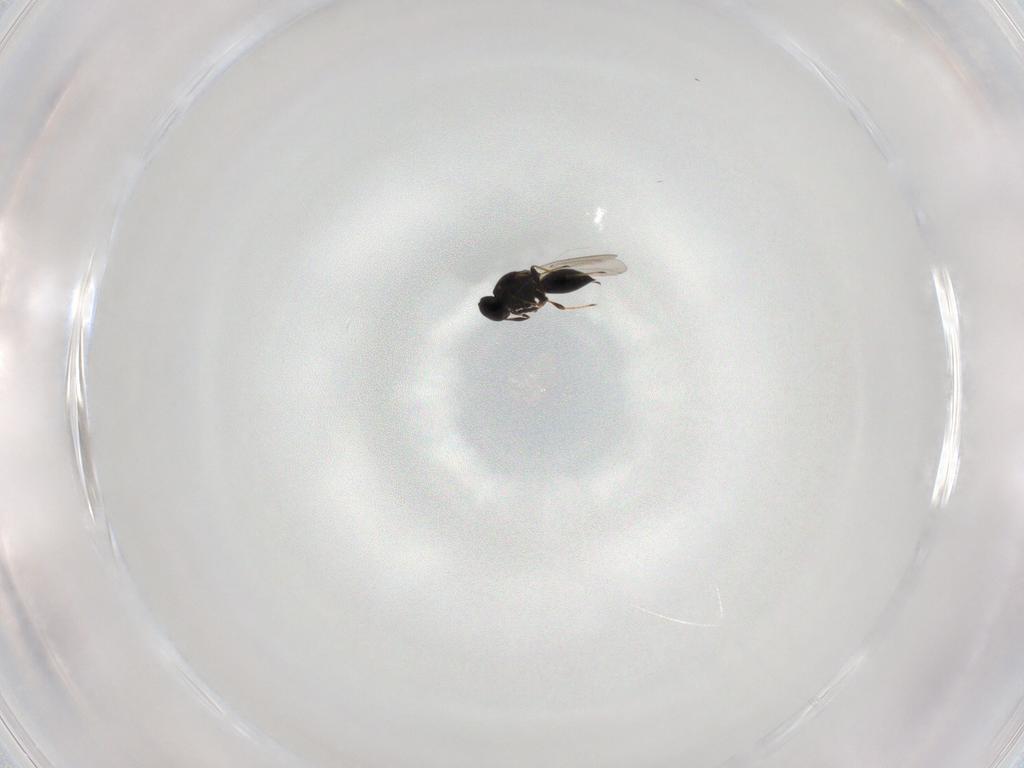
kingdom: Animalia
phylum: Arthropoda
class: Insecta
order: Hymenoptera
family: Platygastridae
